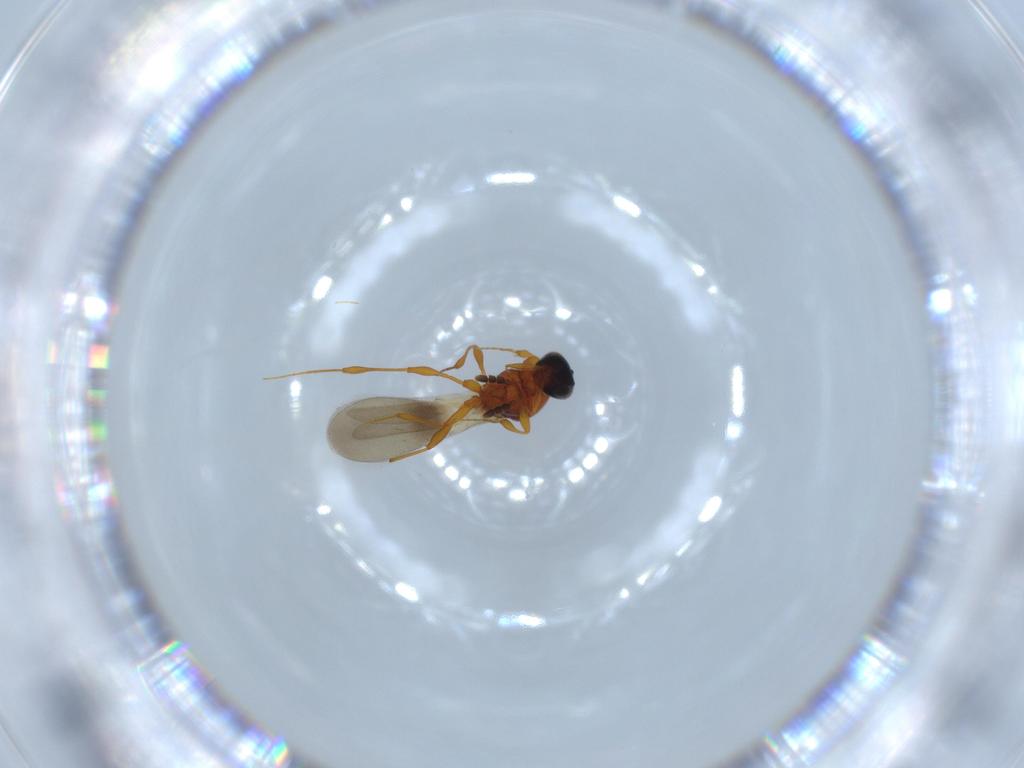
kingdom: Animalia
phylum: Arthropoda
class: Insecta
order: Hymenoptera
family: Platygastridae
